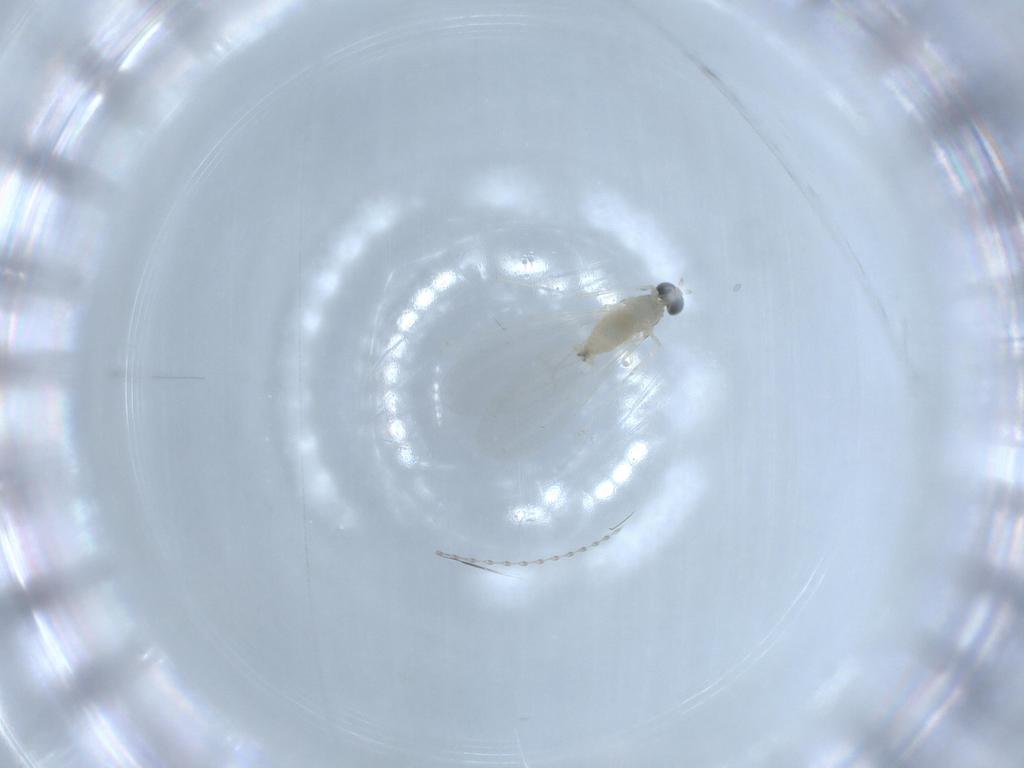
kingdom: Animalia
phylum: Arthropoda
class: Insecta
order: Diptera
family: Cecidomyiidae
